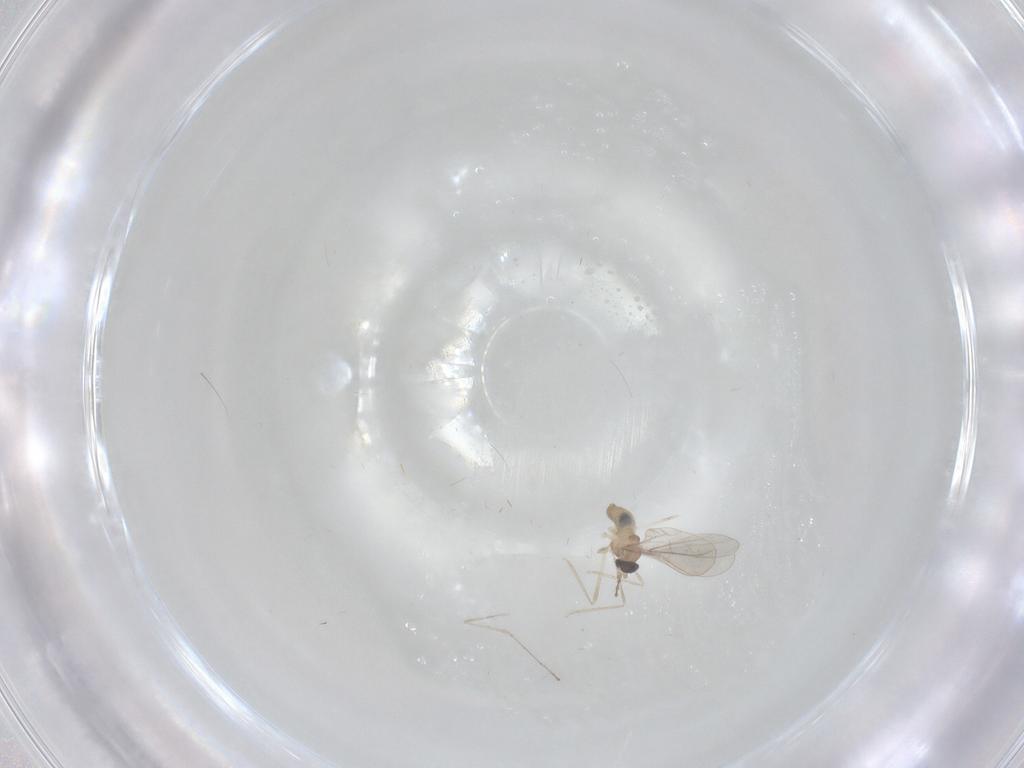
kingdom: Animalia
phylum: Arthropoda
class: Insecta
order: Diptera
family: Cecidomyiidae
